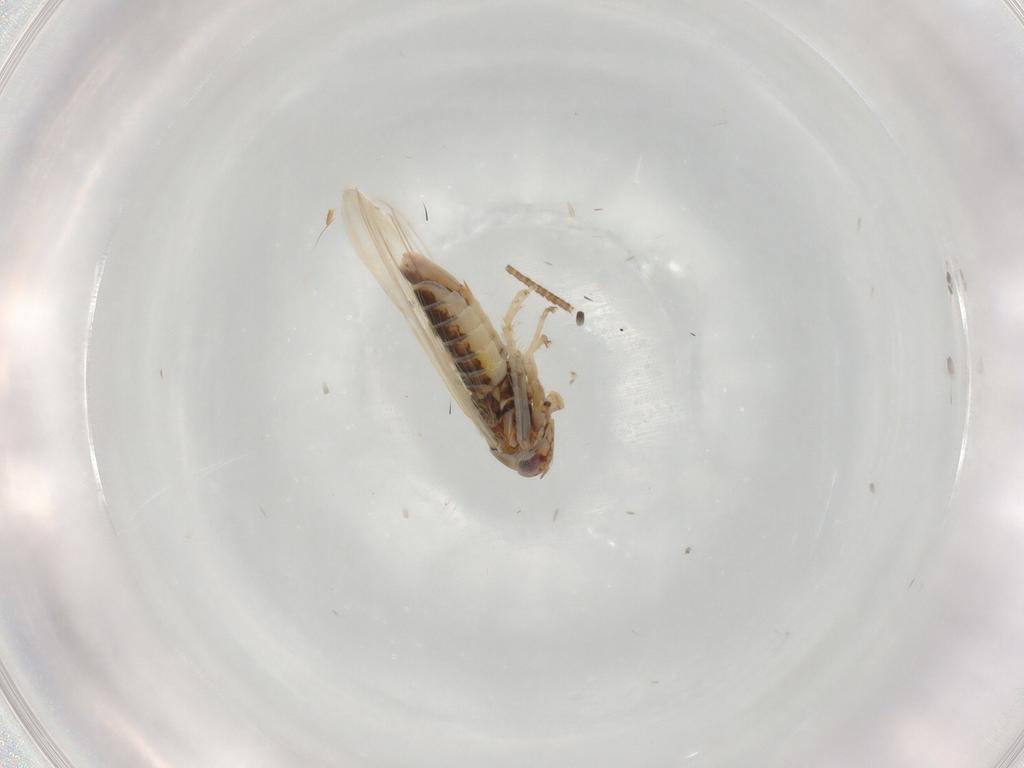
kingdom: Animalia
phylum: Arthropoda
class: Insecta
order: Hemiptera
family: Cicadellidae
